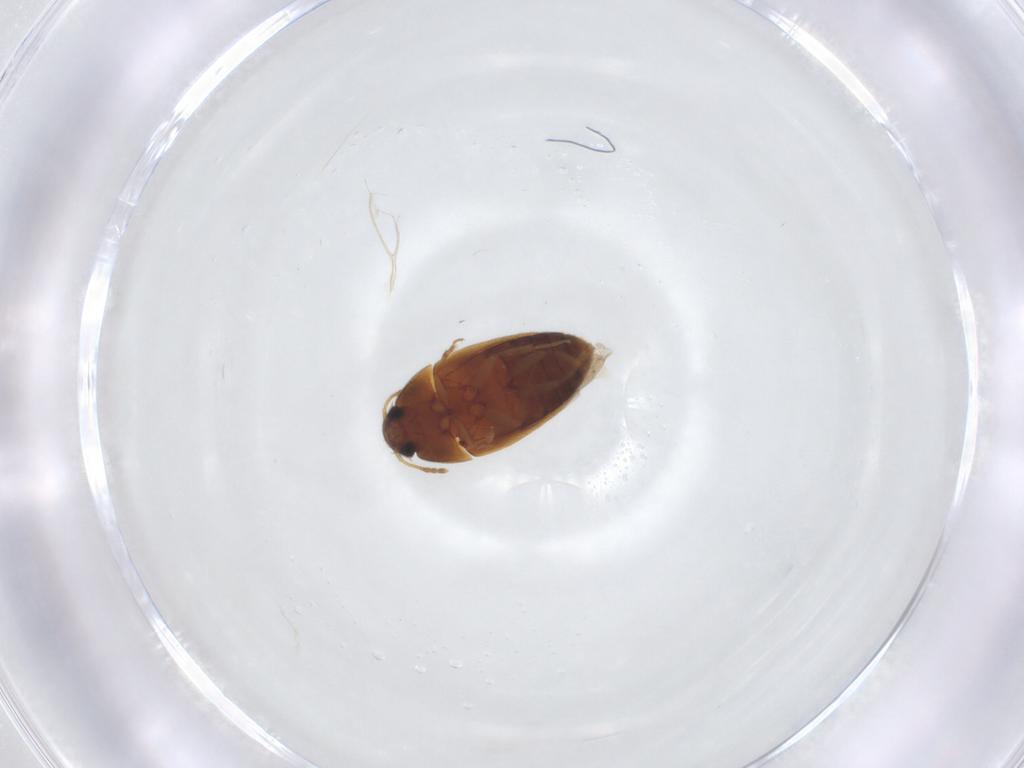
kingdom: Animalia
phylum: Arthropoda
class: Insecta
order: Coleoptera
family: Mycetophagidae
